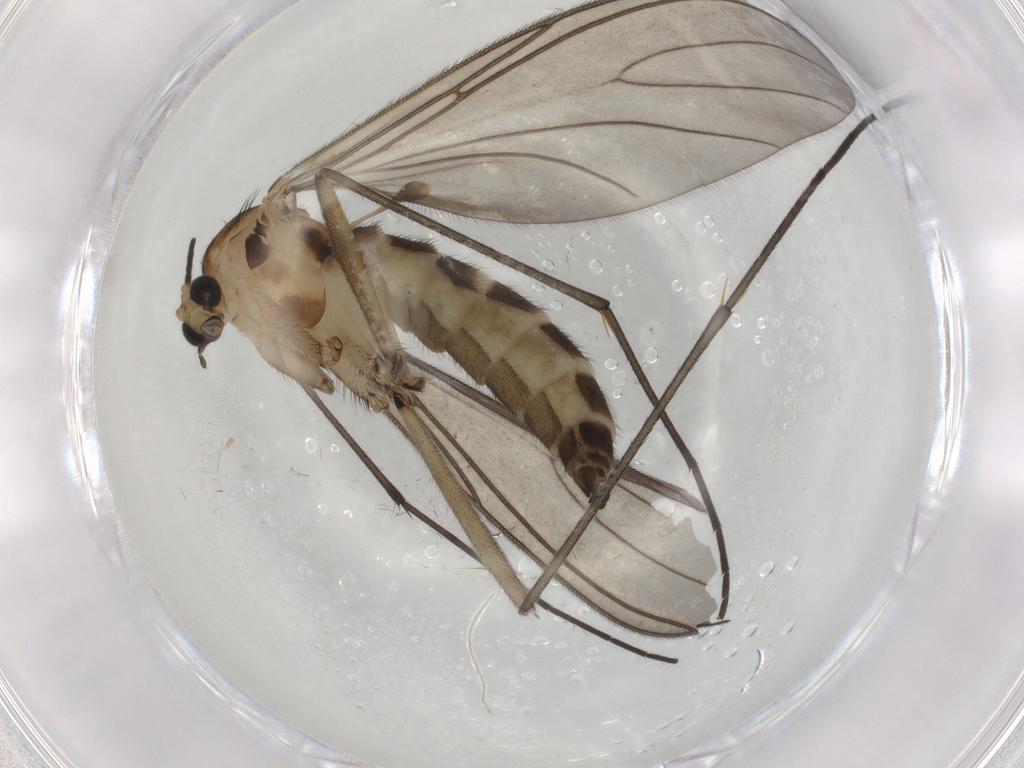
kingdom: Animalia
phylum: Arthropoda
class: Insecta
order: Diptera
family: Sciaridae
